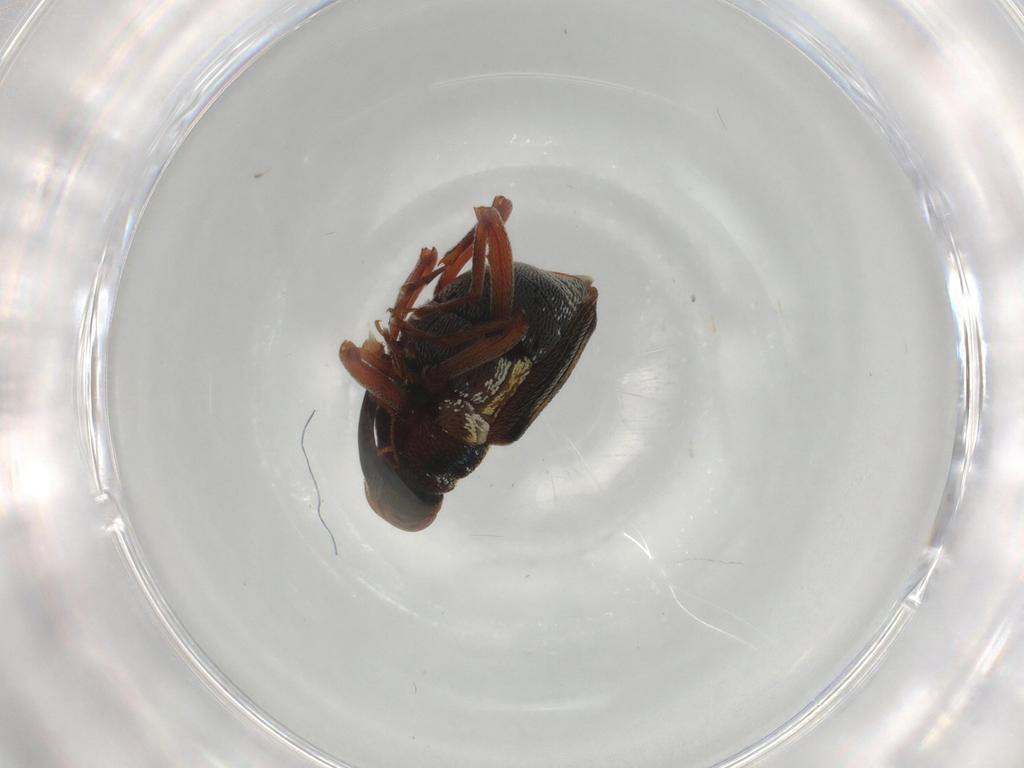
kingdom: Animalia
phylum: Arthropoda
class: Insecta
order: Coleoptera
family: Curculionidae
